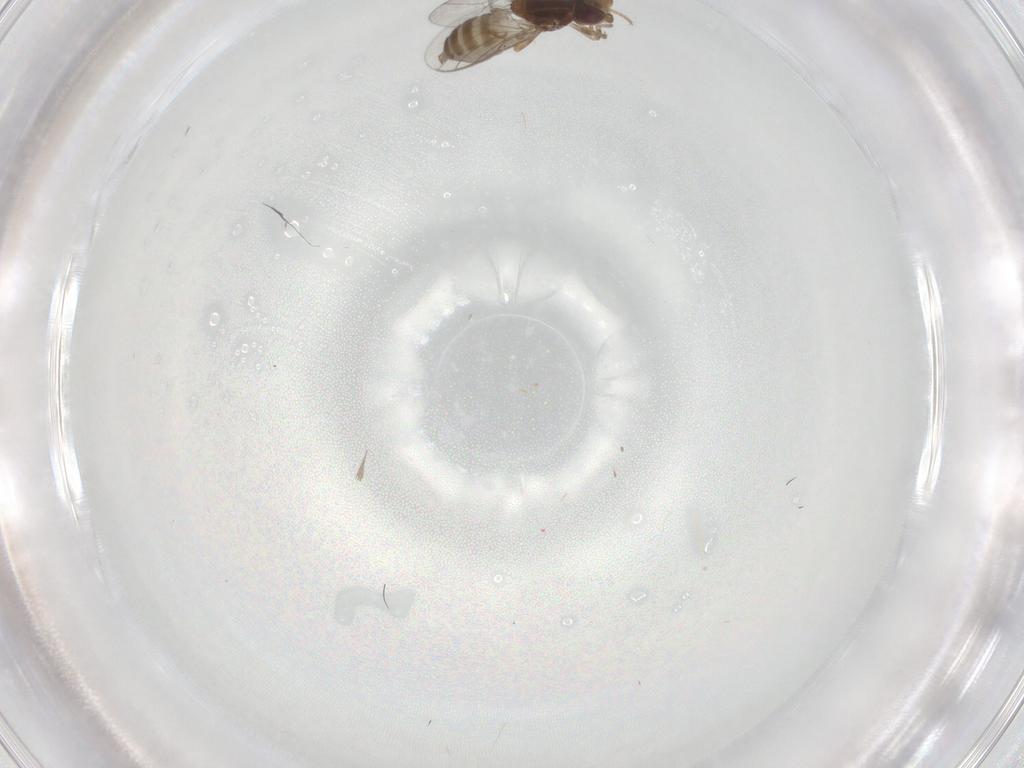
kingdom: Animalia
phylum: Arthropoda
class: Insecta
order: Diptera
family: Chloropidae
